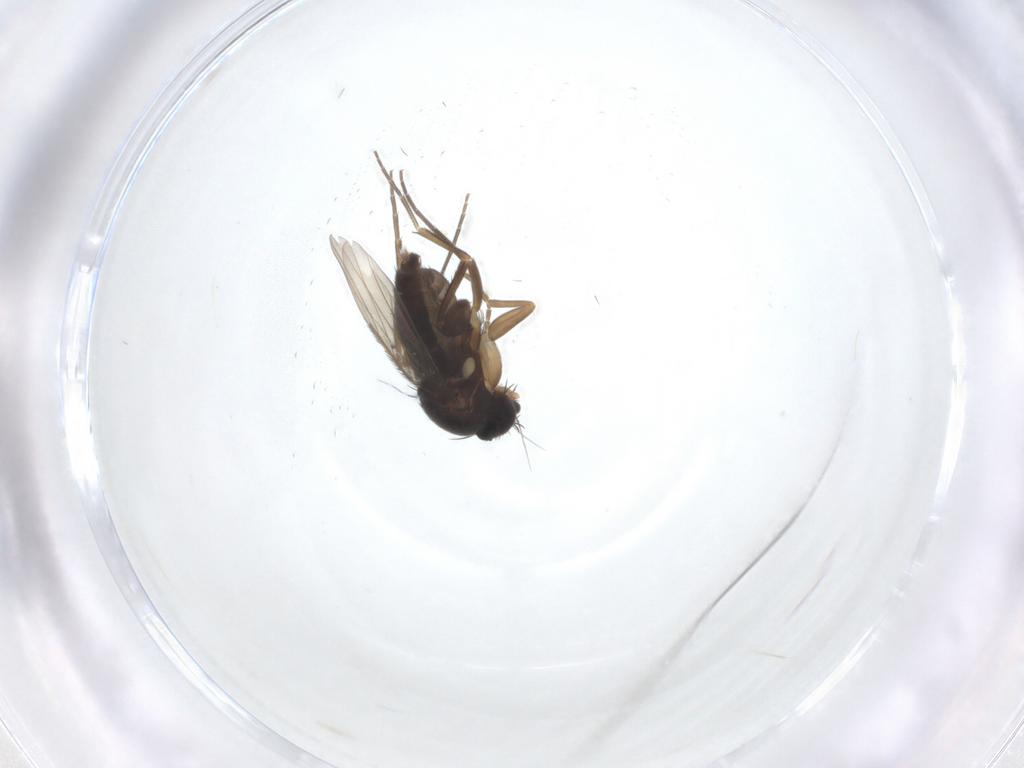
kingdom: Animalia
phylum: Arthropoda
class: Insecta
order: Diptera
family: Phoridae
